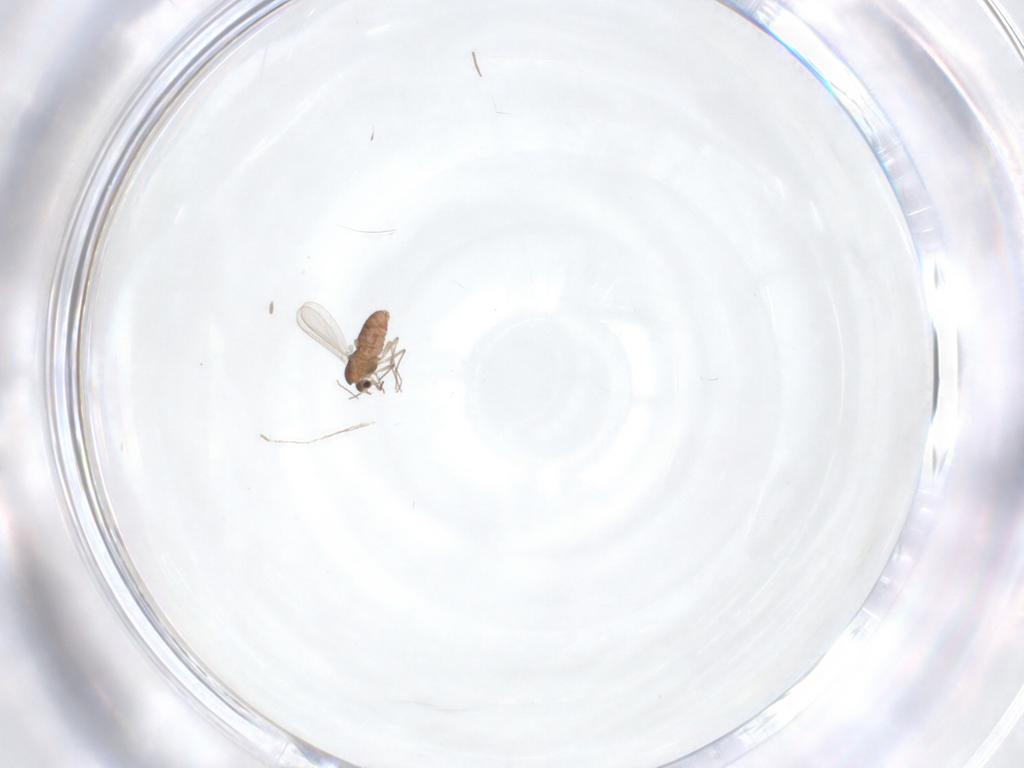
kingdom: Animalia
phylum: Arthropoda
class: Insecta
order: Diptera
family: Chironomidae
